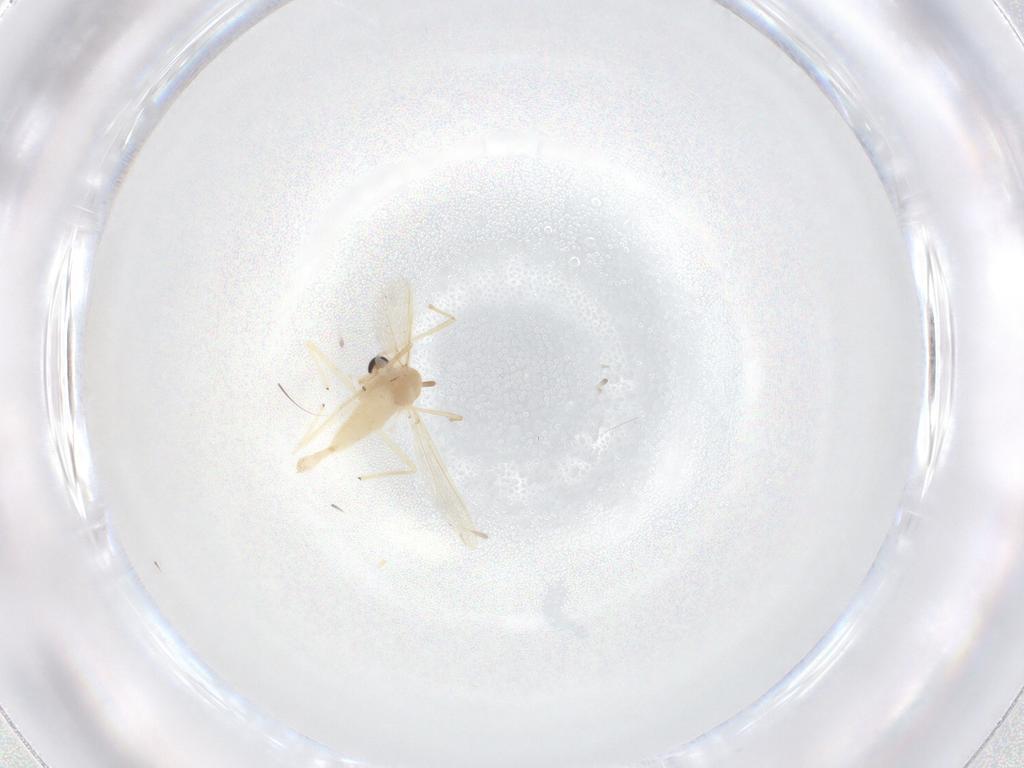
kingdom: Animalia
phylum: Arthropoda
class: Insecta
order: Diptera
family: Chironomidae
